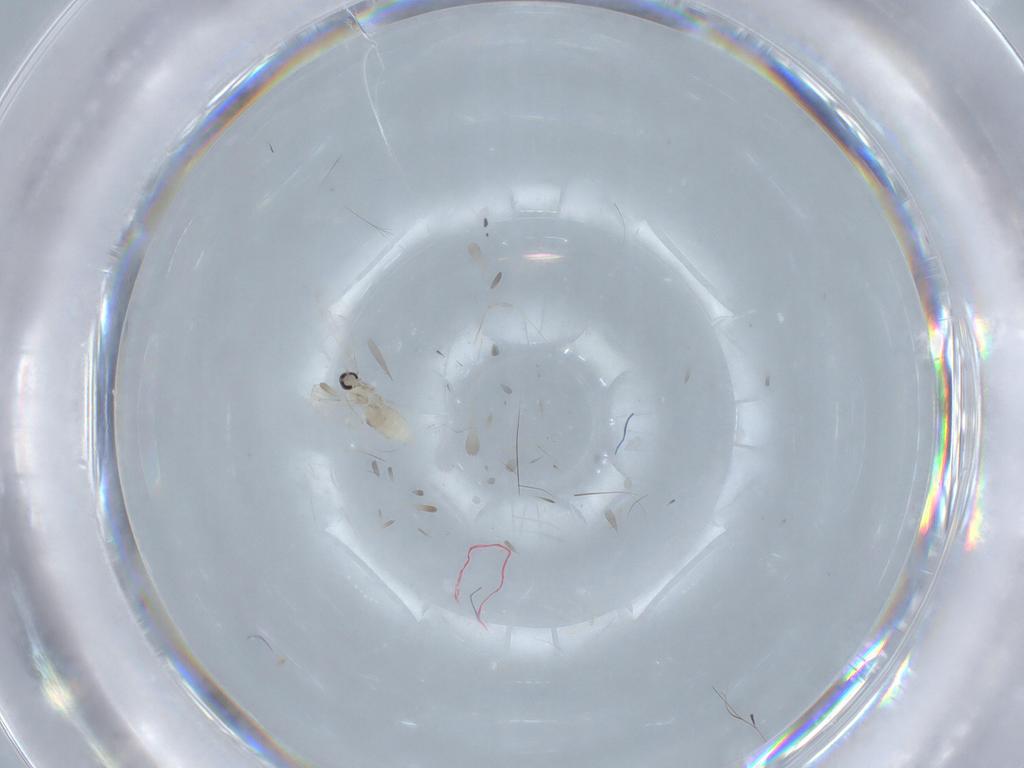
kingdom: Animalia
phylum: Arthropoda
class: Insecta
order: Diptera
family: Cecidomyiidae
